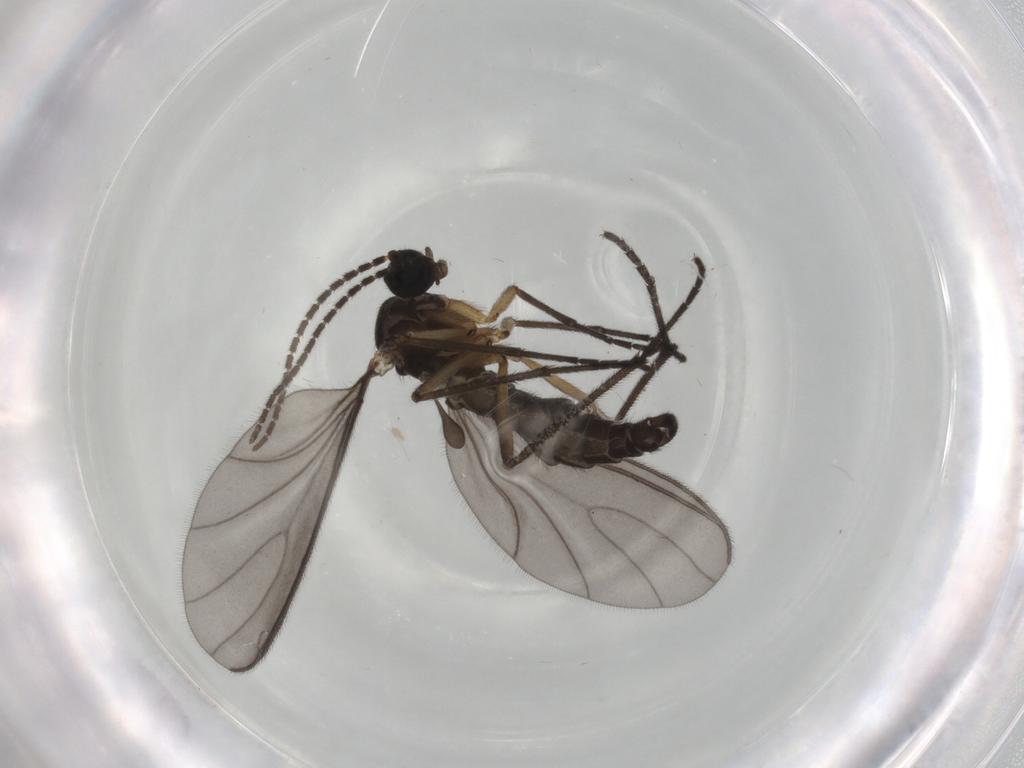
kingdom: Animalia
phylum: Arthropoda
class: Insecta
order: Diptera
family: Sciaridae
